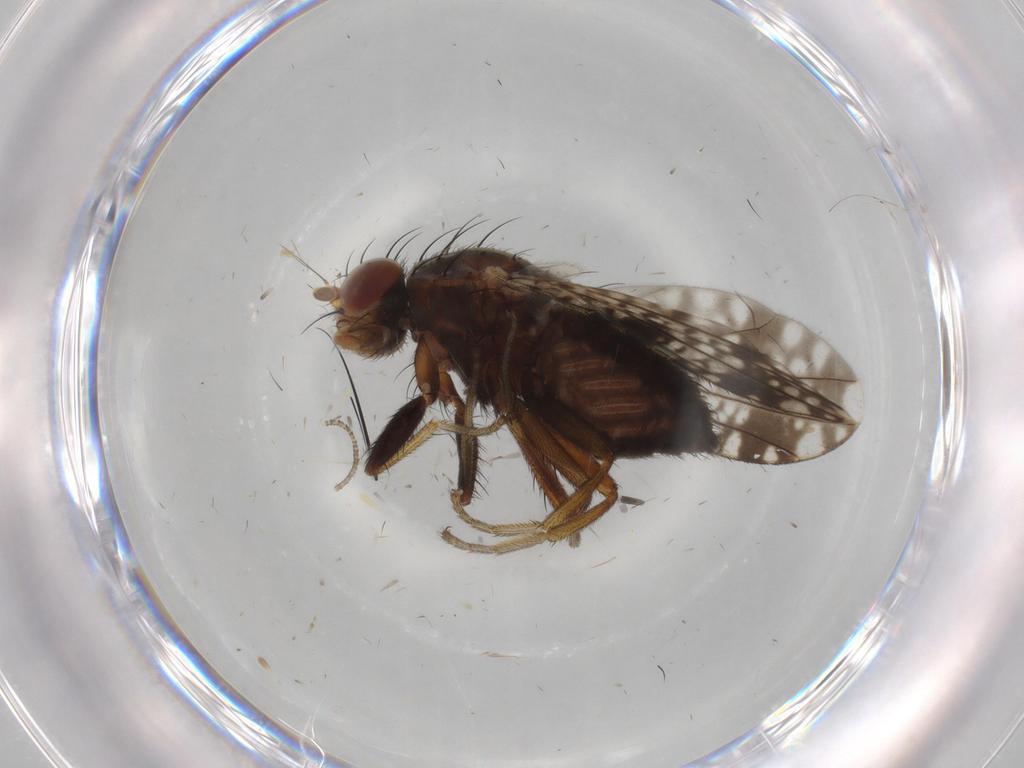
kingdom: Animalia
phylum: Arthropoda
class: Insecta
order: Diptera
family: Tephritidae
